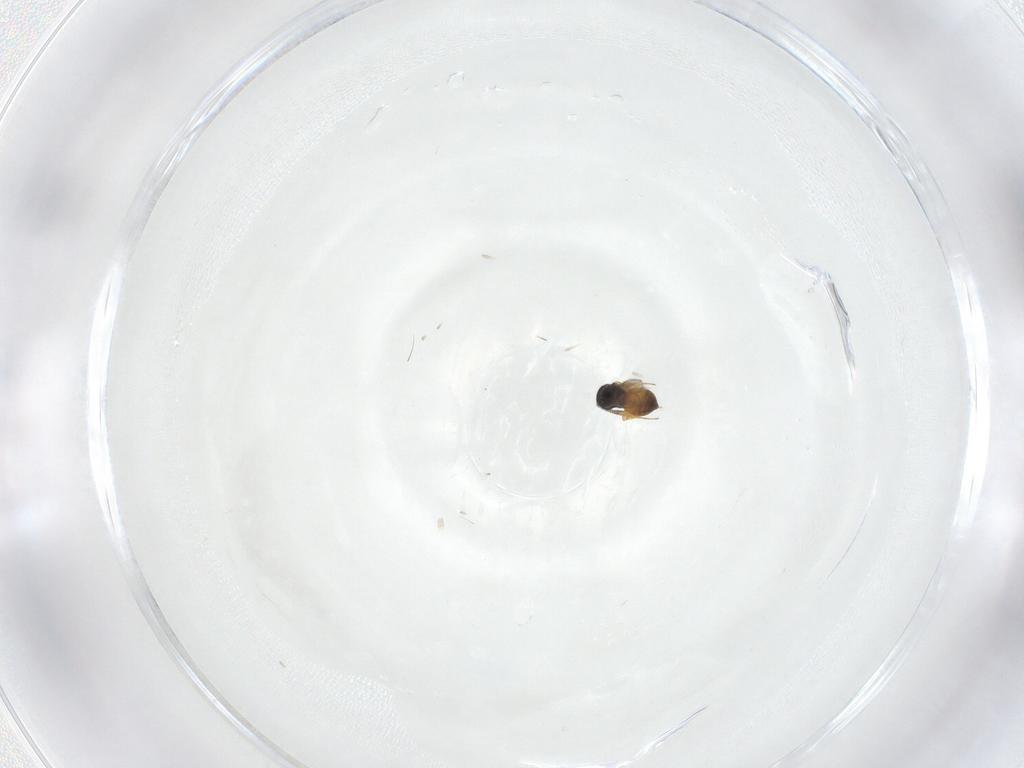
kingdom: Animalia
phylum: Arthropoda
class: Insecta
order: Hymenoptera
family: Scelionidae
